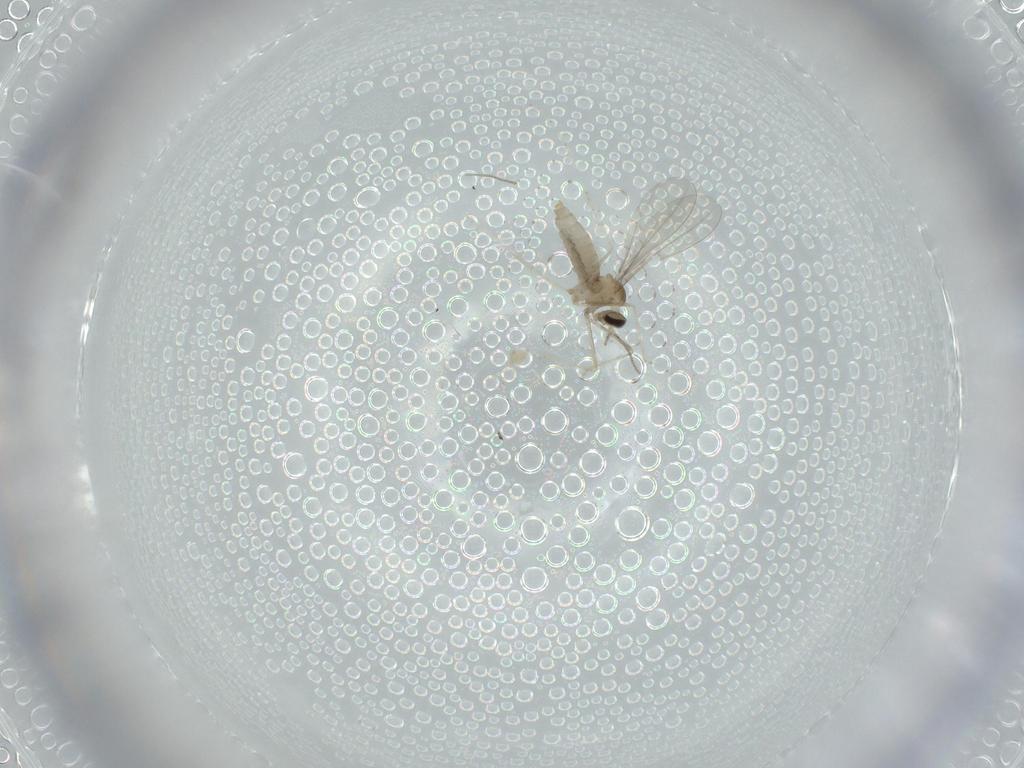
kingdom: Animalia
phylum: Arthropoda
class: Insecta
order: Diptera
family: Cecidomyiidae
